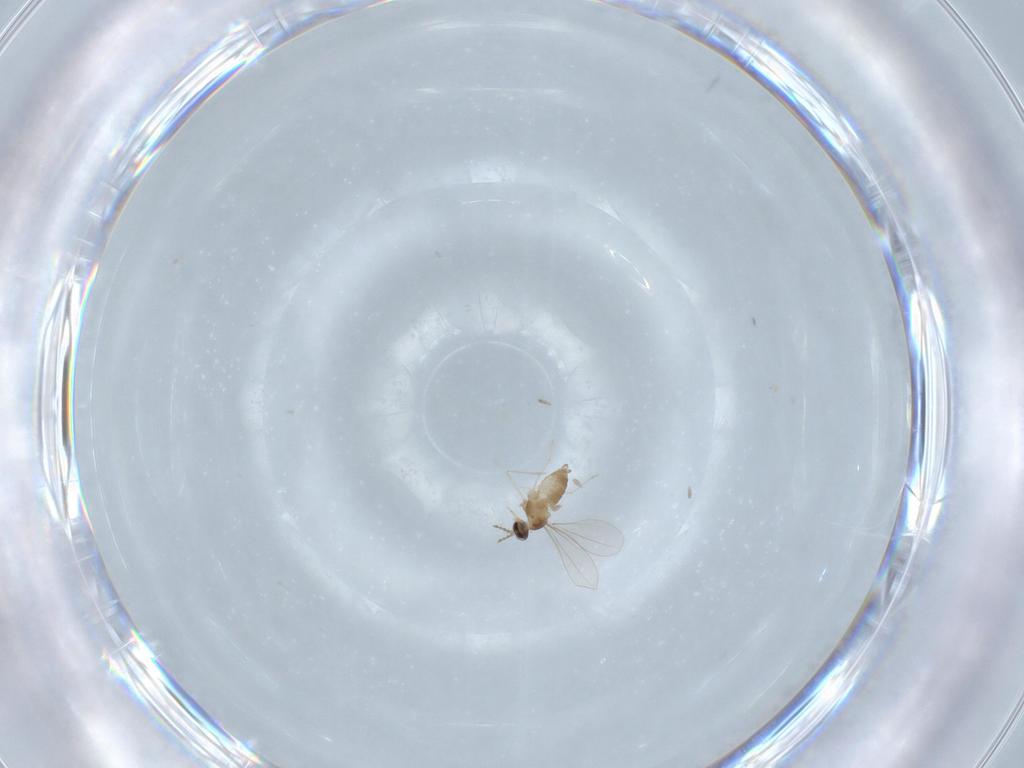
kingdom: Animalia
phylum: Arthropoda
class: Insecta
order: Diptera
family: Cecidomyiidae
